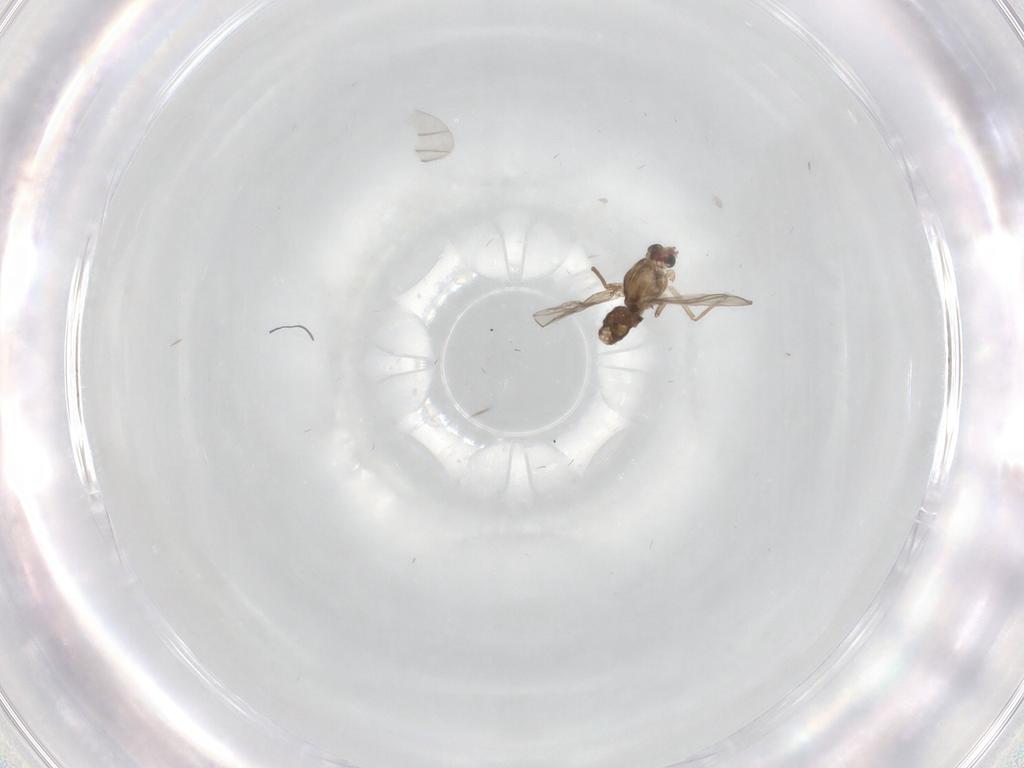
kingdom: Animalia
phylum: Arthropoda
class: Insecta
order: Diptera
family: Chironomidae
